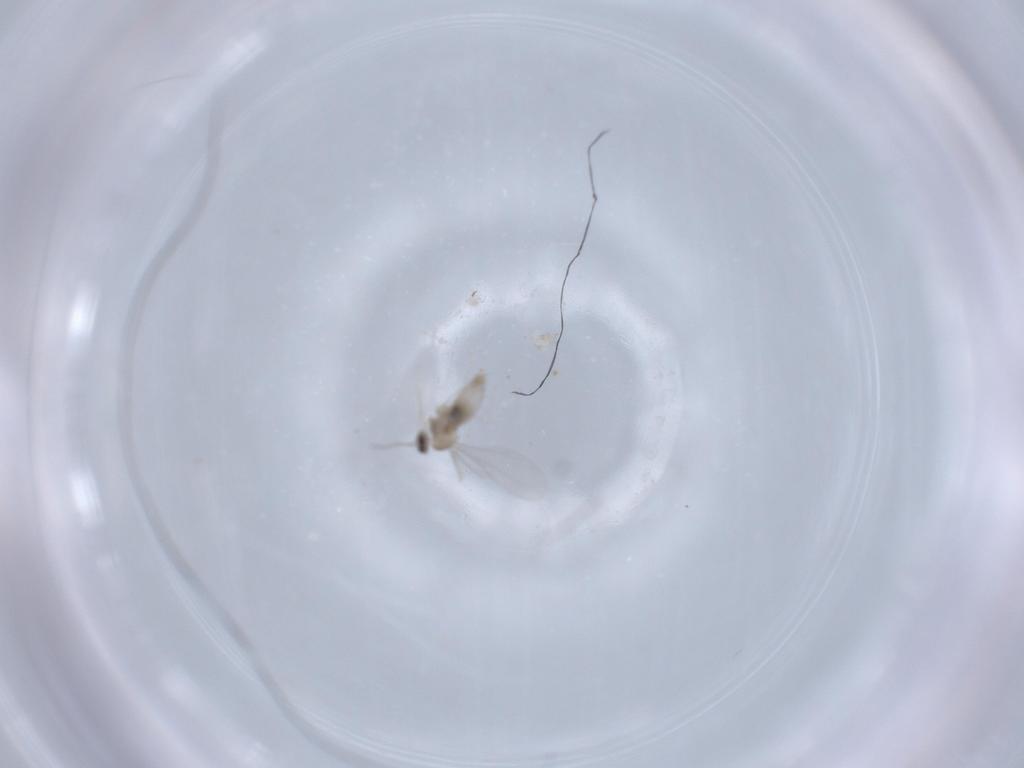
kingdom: Animalia
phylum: Arthropoda
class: Insecta
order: Diptera
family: Cecidomyiidae
